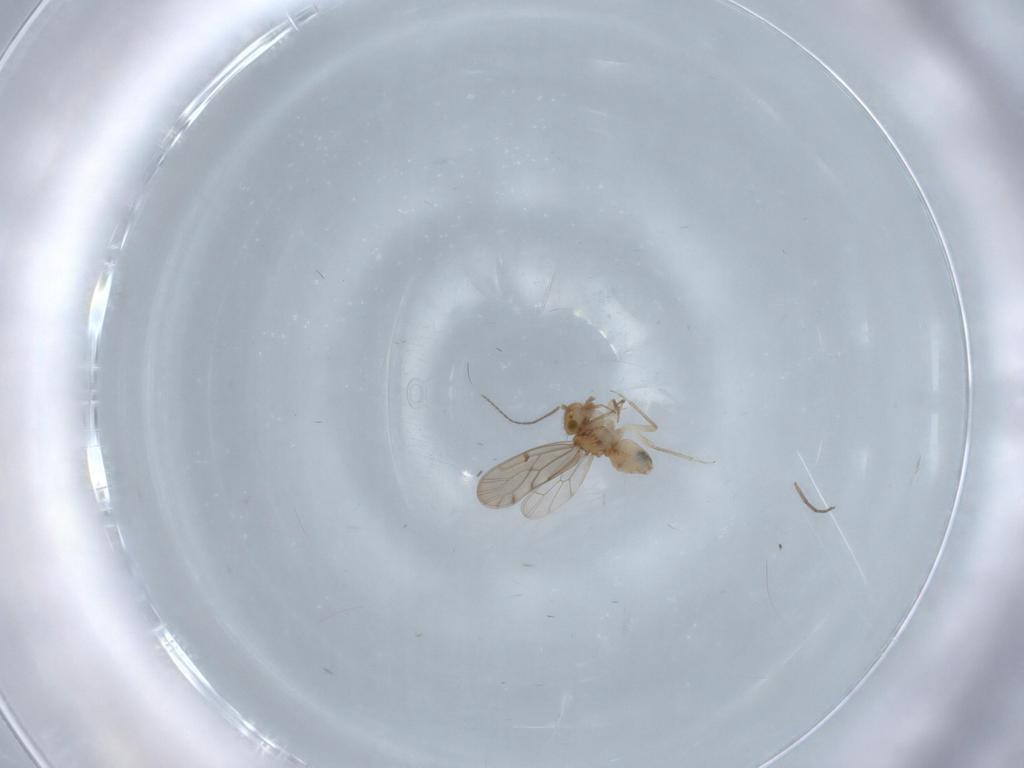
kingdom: Animalia
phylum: Arthropoda
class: Insecta
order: Psocodea
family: Ectopsocidae
